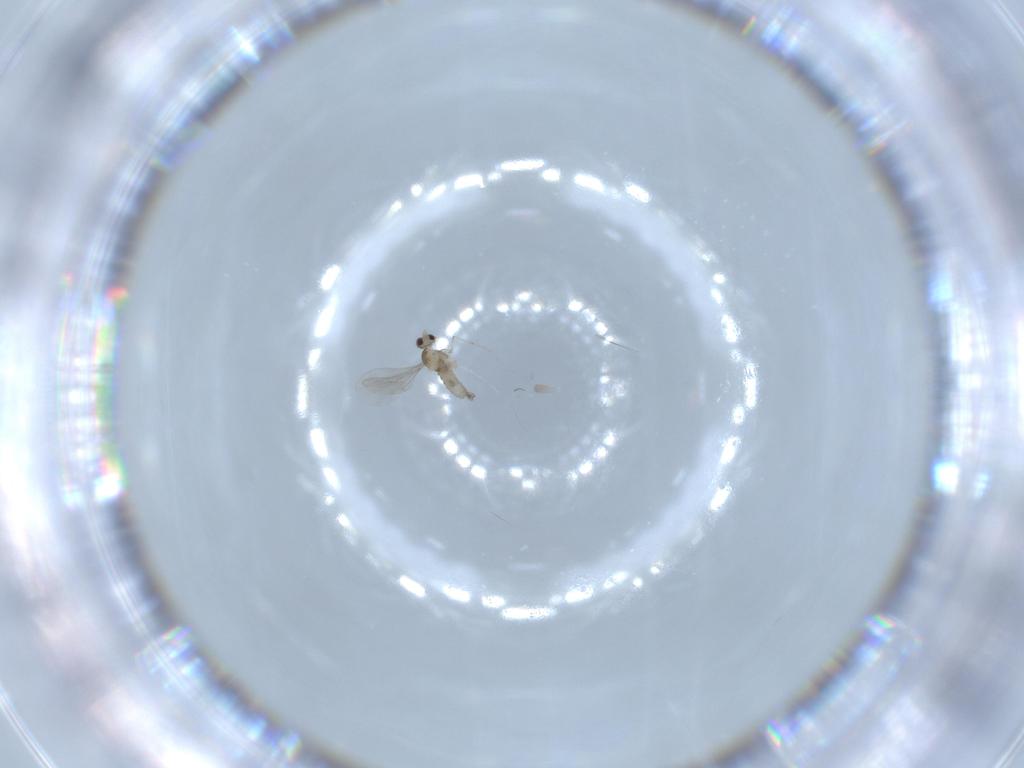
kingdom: Animalia
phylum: Arthropoda
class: Insecta
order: Diptera
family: Cecidomyiidae
